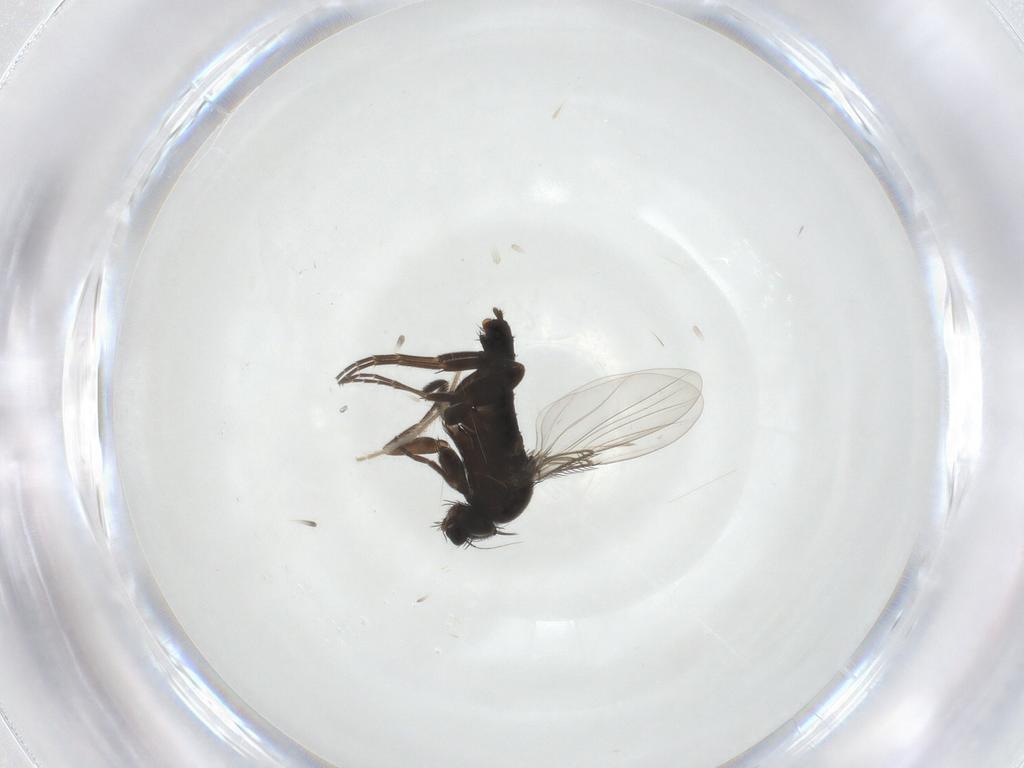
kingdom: Animalia
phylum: Arthropoda
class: Insecta
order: Diptera
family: Phoridae
